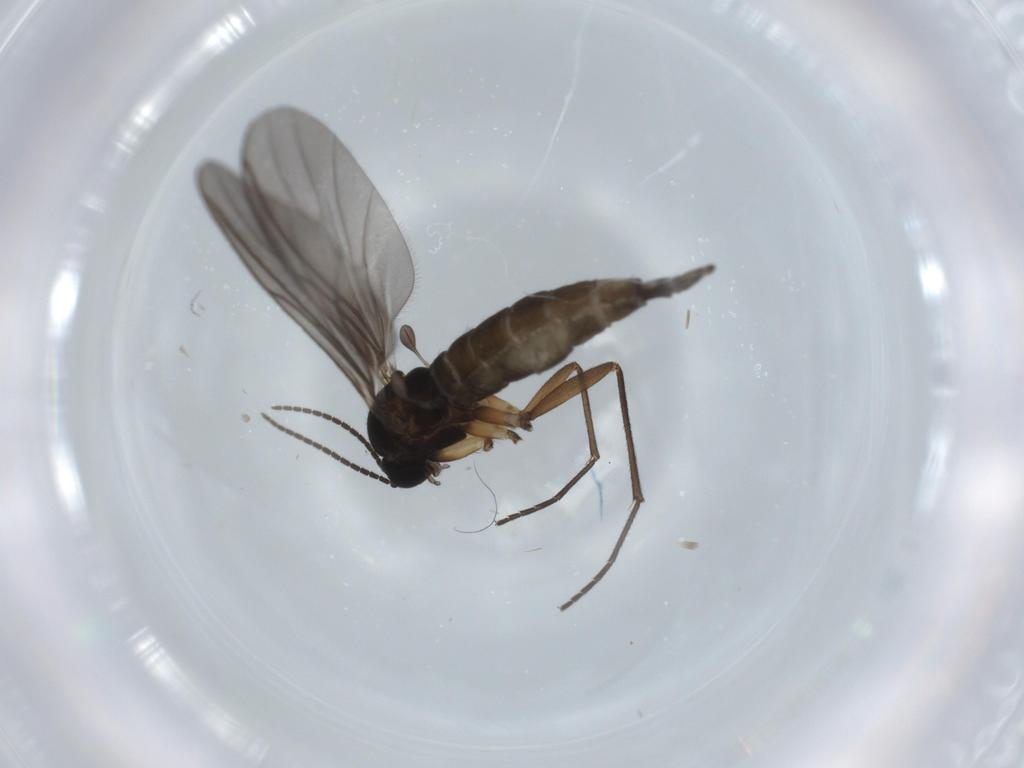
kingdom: Animalia
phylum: Arthropoda
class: Insecta
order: Diptera
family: Sciaridae
